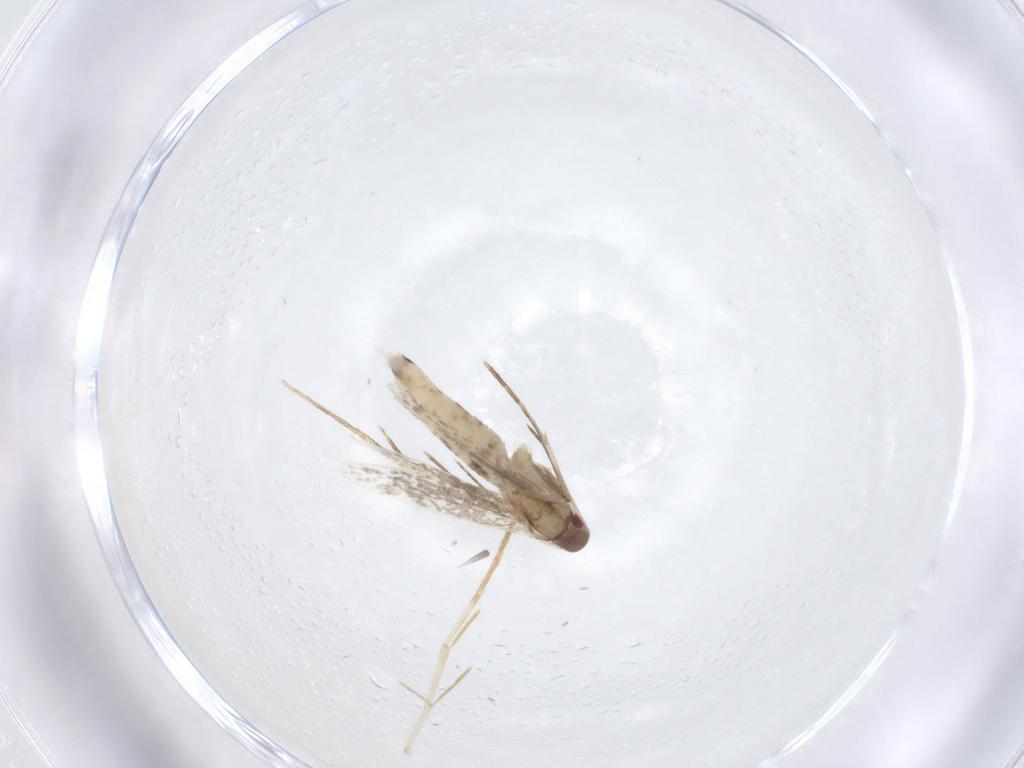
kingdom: Animalia
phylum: Arthropoda
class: Insecta
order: Lepidoptera
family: Cosmopterigidae
